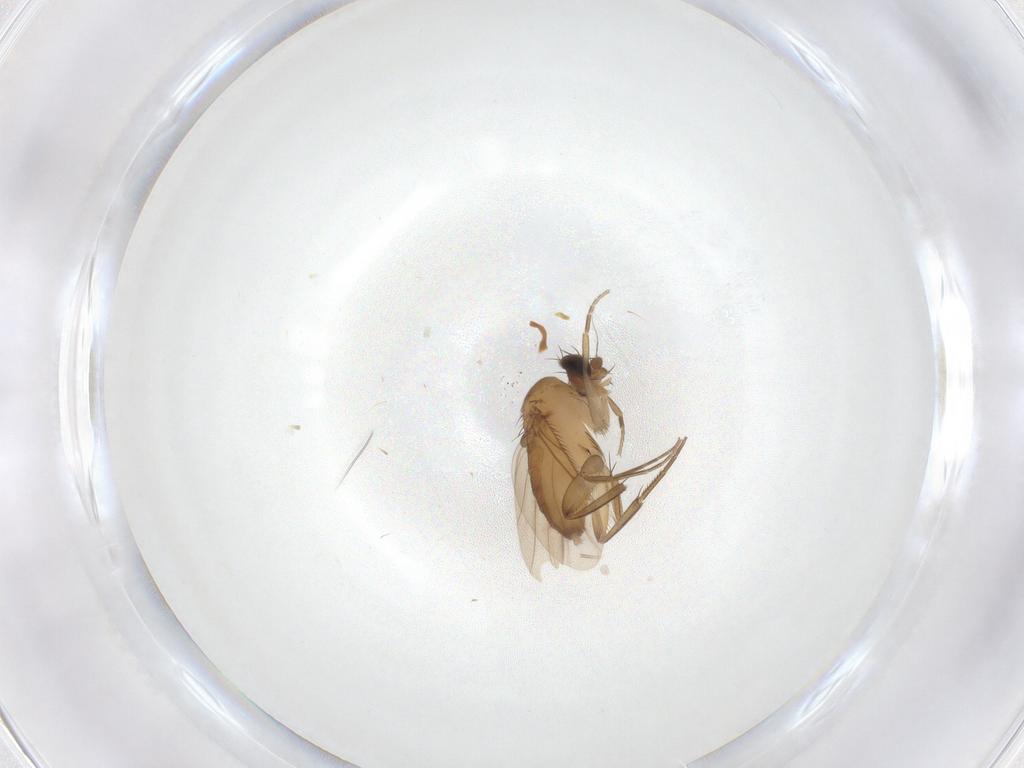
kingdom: Animalia
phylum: Arthropoda
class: Insecta
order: Diptera
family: Phoridae
